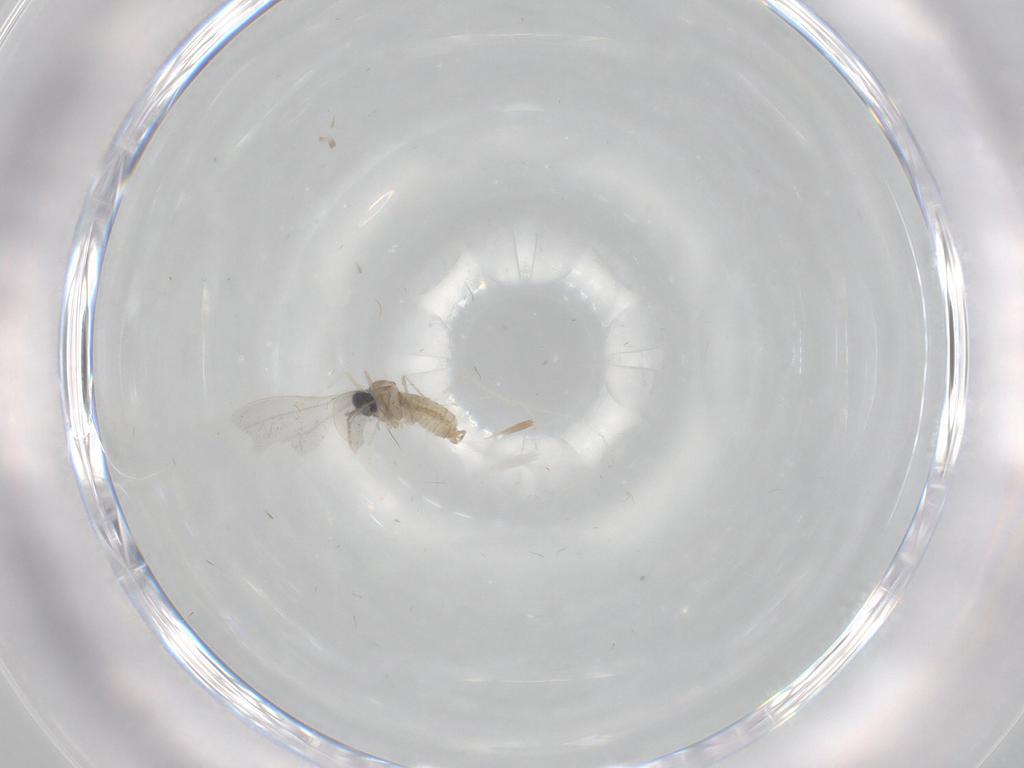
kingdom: Animalia
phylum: Arthropoda
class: Insecta
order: Diptera
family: Cecidomyiidae
